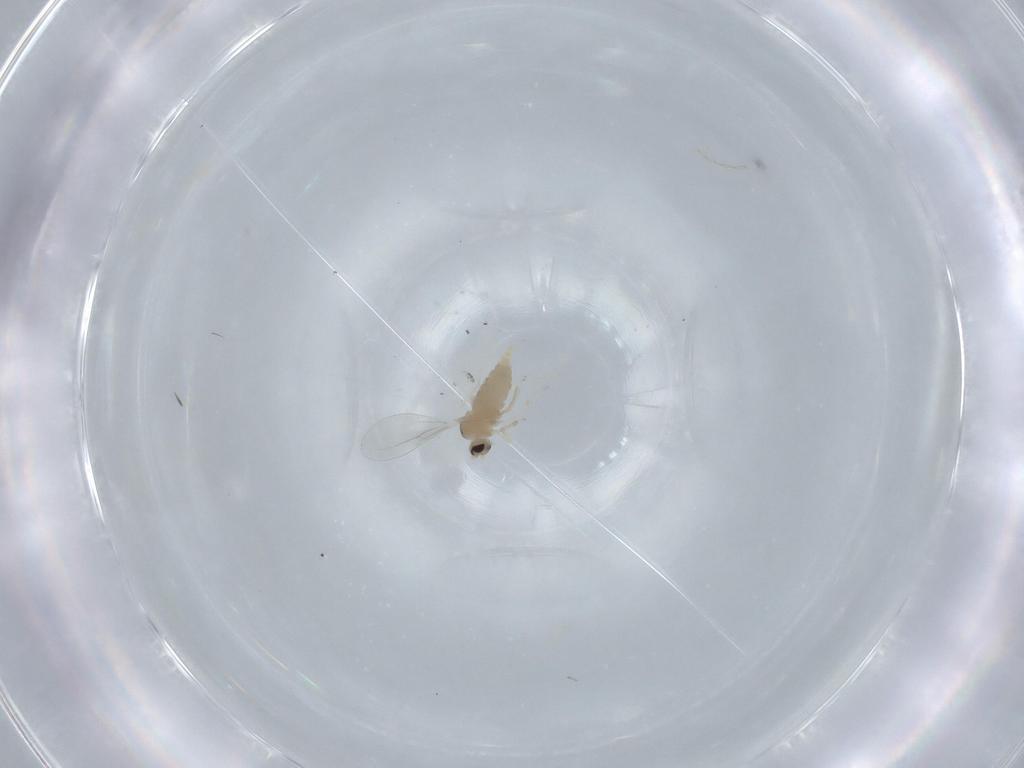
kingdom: Animalia
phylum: Arthropoda
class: Insecta
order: Diptera
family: Cecidomyiidae
